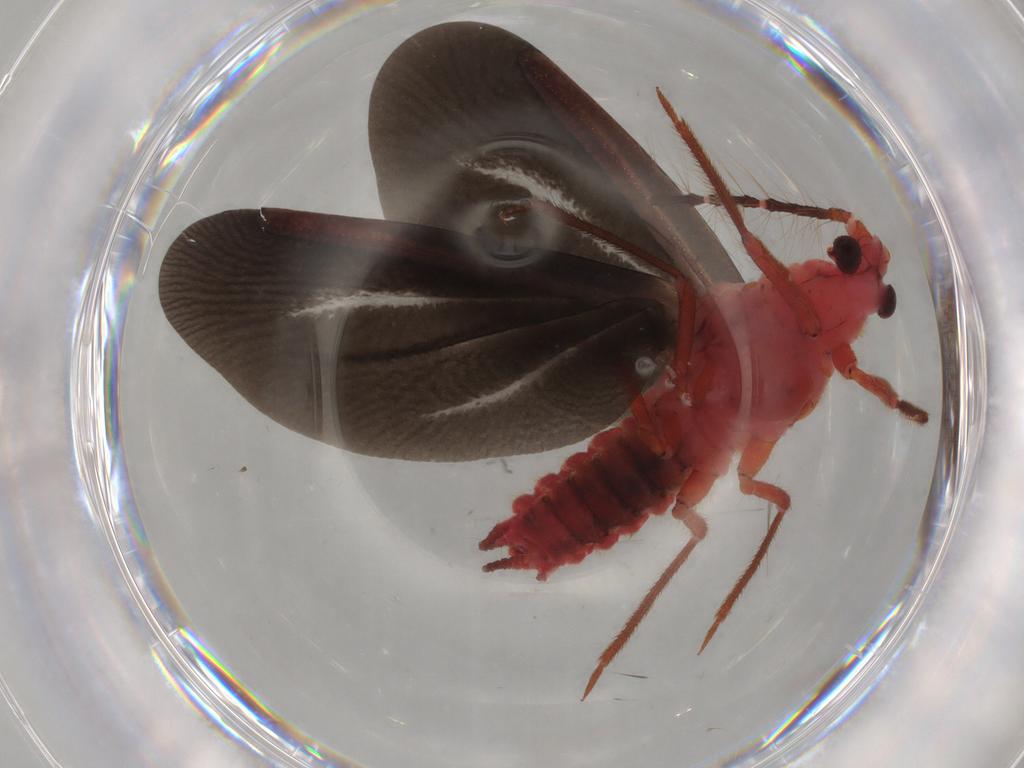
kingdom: Animalia
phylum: Arthropoda
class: Insecta
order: Hemiptera
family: Margarodidae
